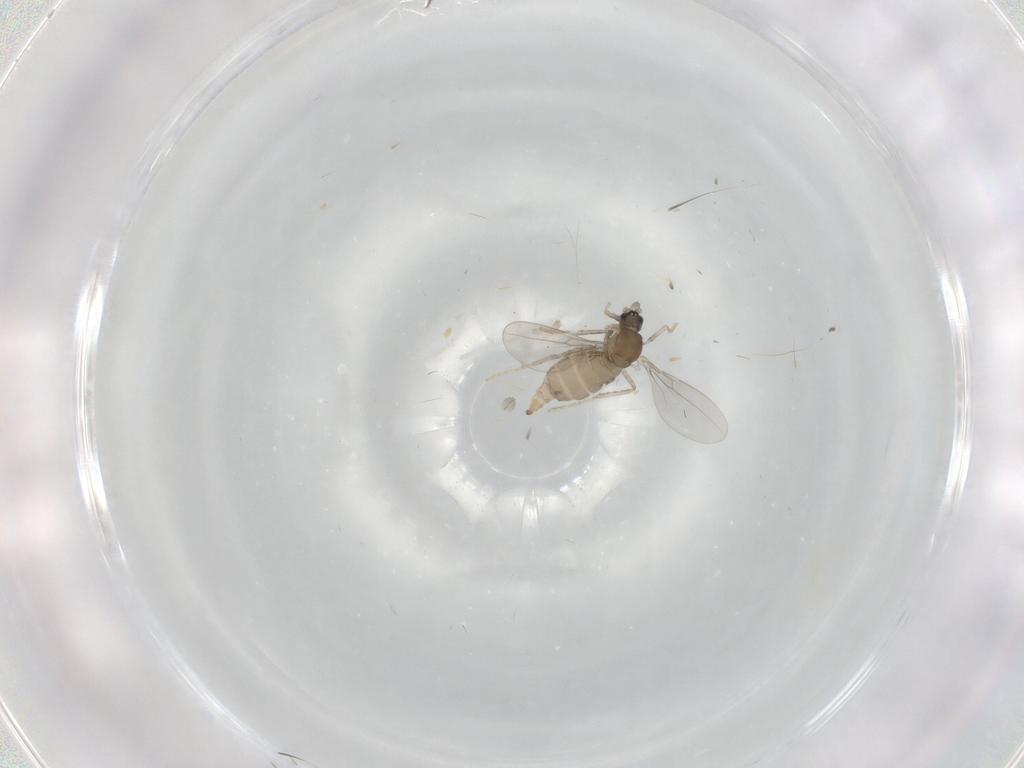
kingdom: Animalia
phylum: Arthropoda
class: Insecta
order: Diptera
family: Cecidomyiidae
